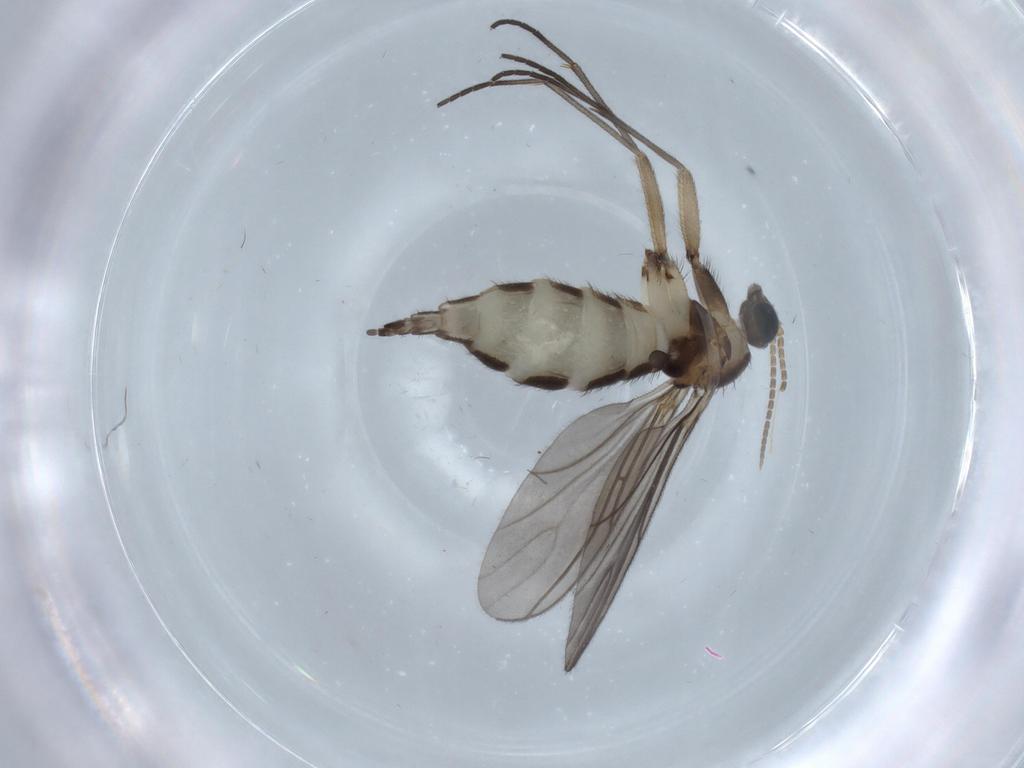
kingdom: Animalia
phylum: Arthropoda
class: Insecta
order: Diptera
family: Sciaridae
